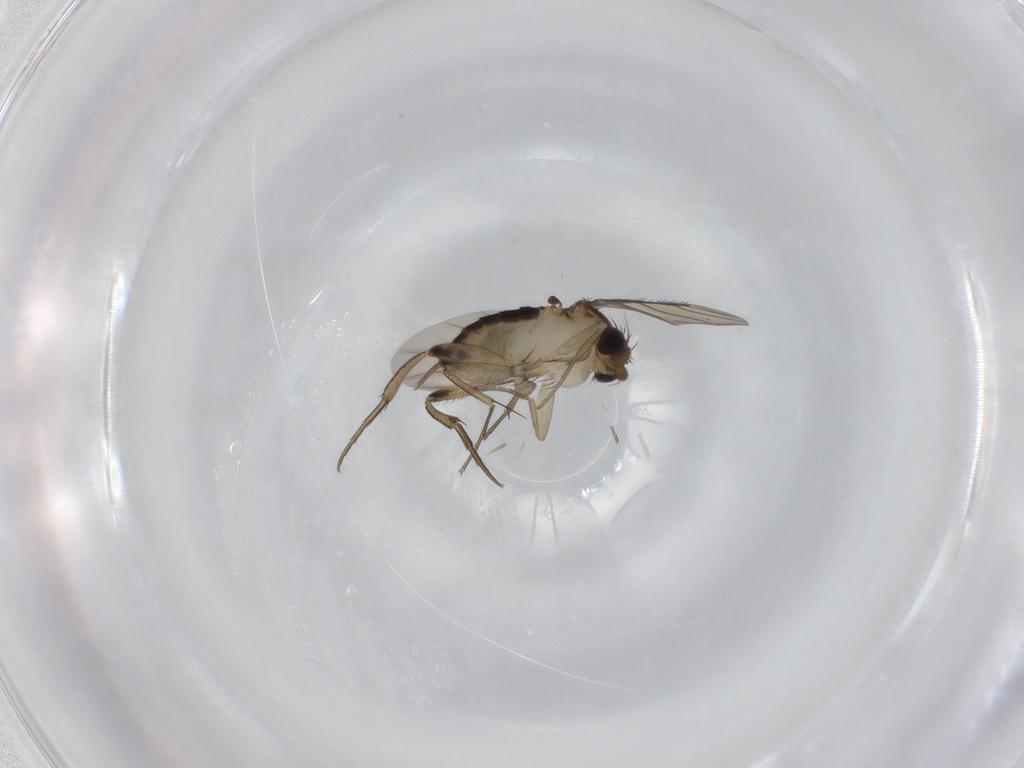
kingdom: Animalia
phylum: Arthropoda
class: Insecta
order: Diptera
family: Phoridae
